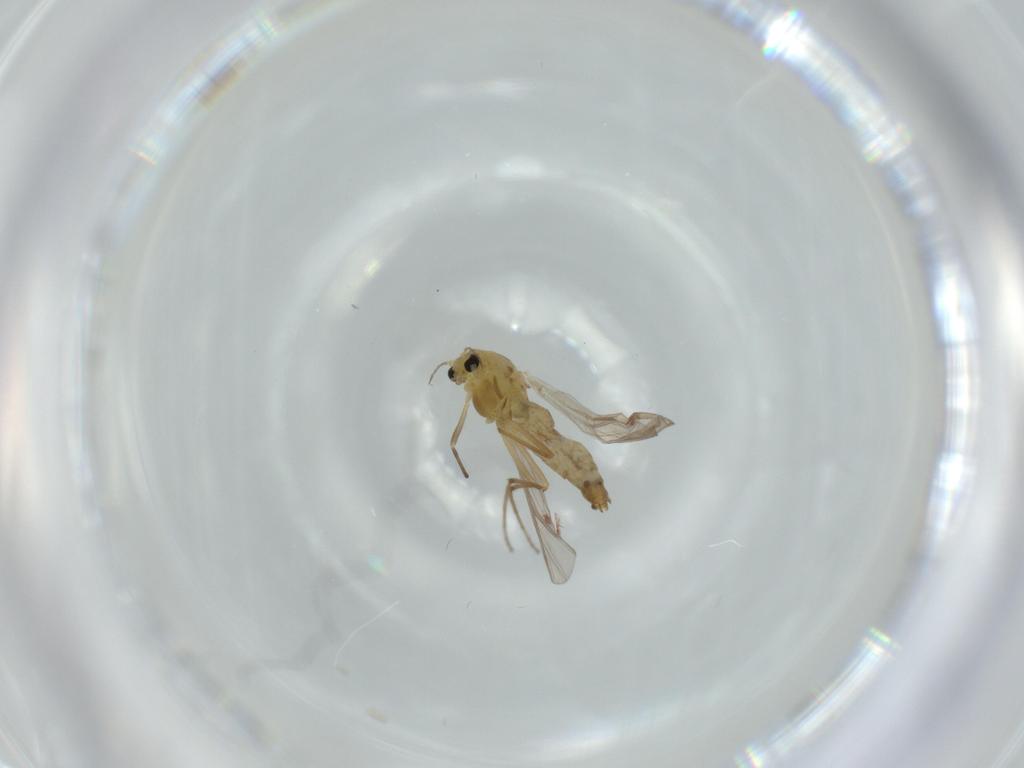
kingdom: Animalia
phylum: Arthropoda
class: Insecta
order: Diptera
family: Chironomidae
